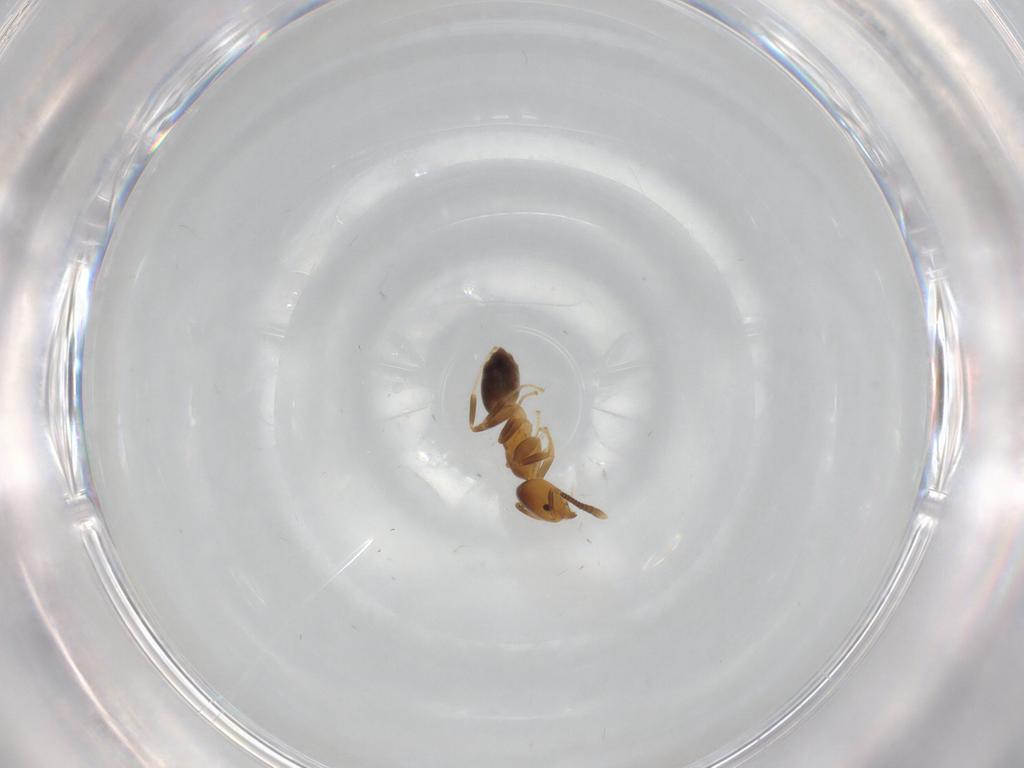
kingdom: Animalia
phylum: Arthropoda
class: Insecta
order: Hymenoptera
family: Formicidae
